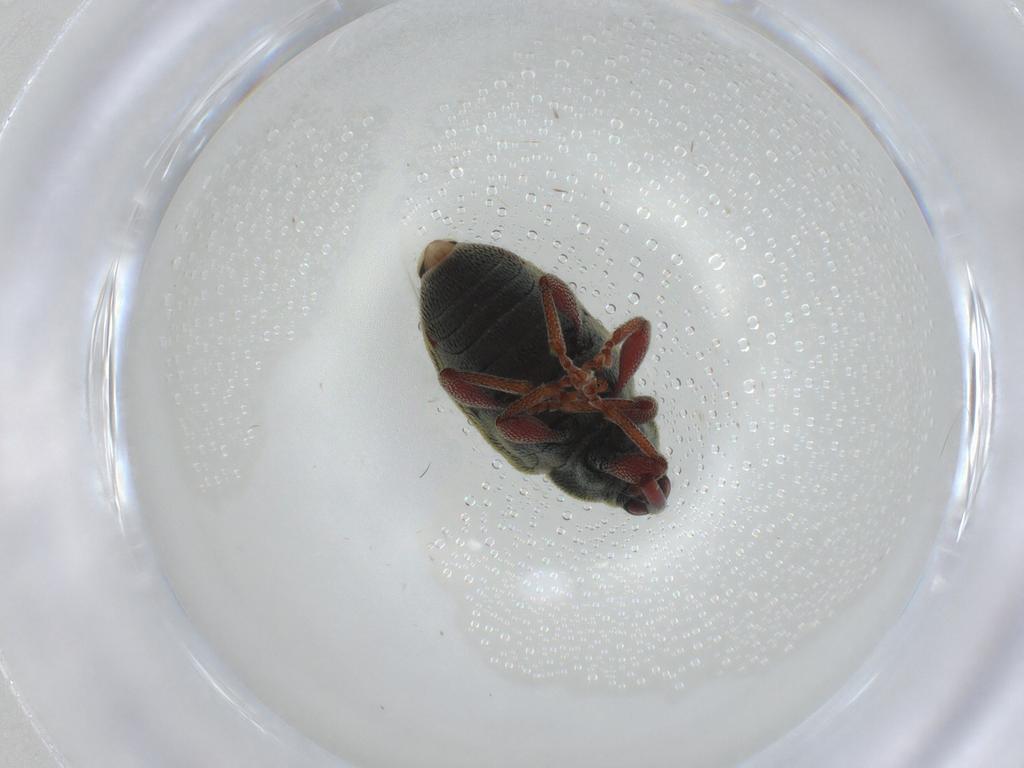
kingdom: Animalia
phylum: Arthropoda
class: Insecta
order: Coleoptera
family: Curculionidae
